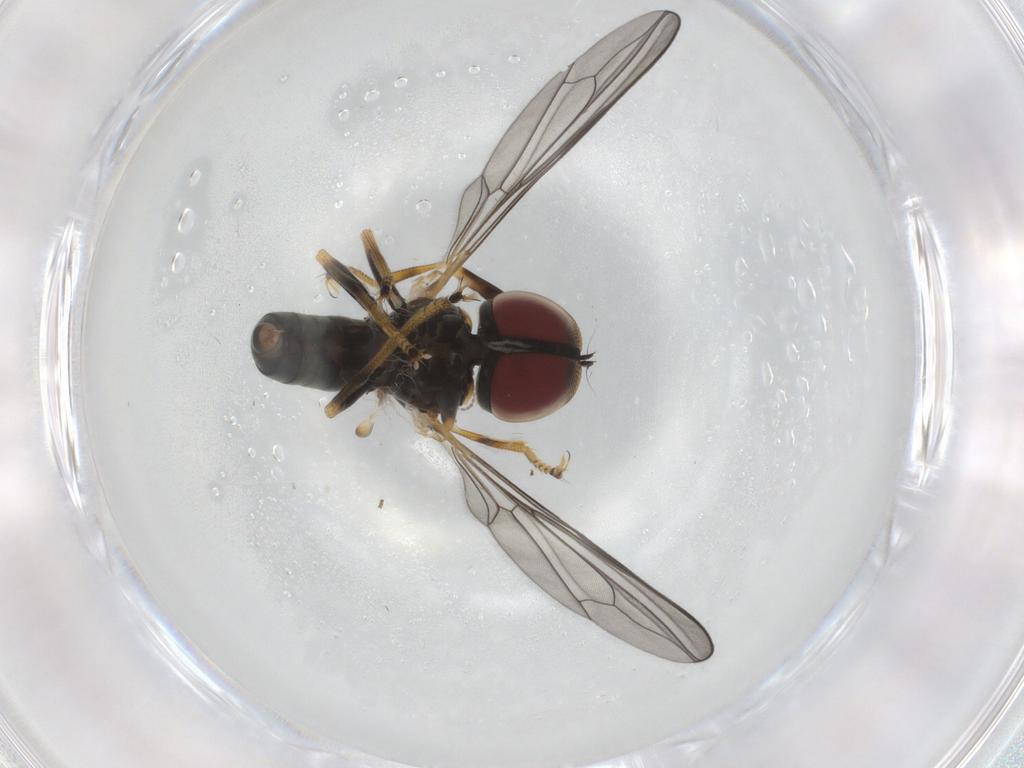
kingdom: Animalia
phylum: Arthropoda
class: Insecta
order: Diptera
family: Pipunculidae
